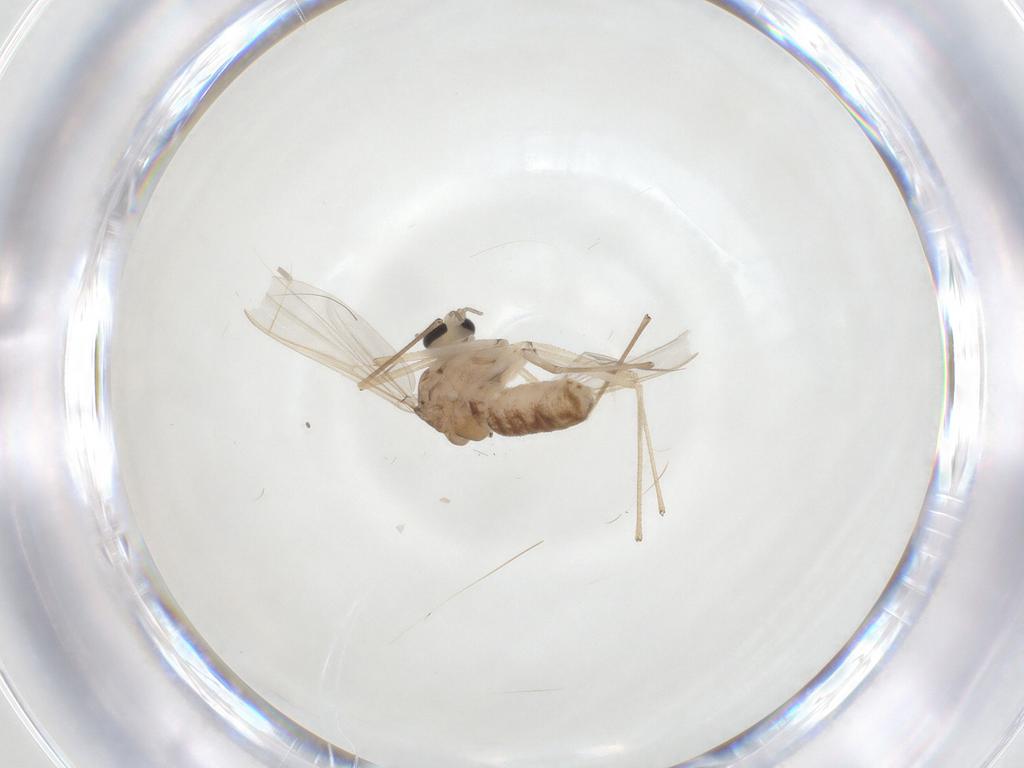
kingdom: Animalia
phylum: Arthropoda
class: Insecta
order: Diptera
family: Chironomidae
